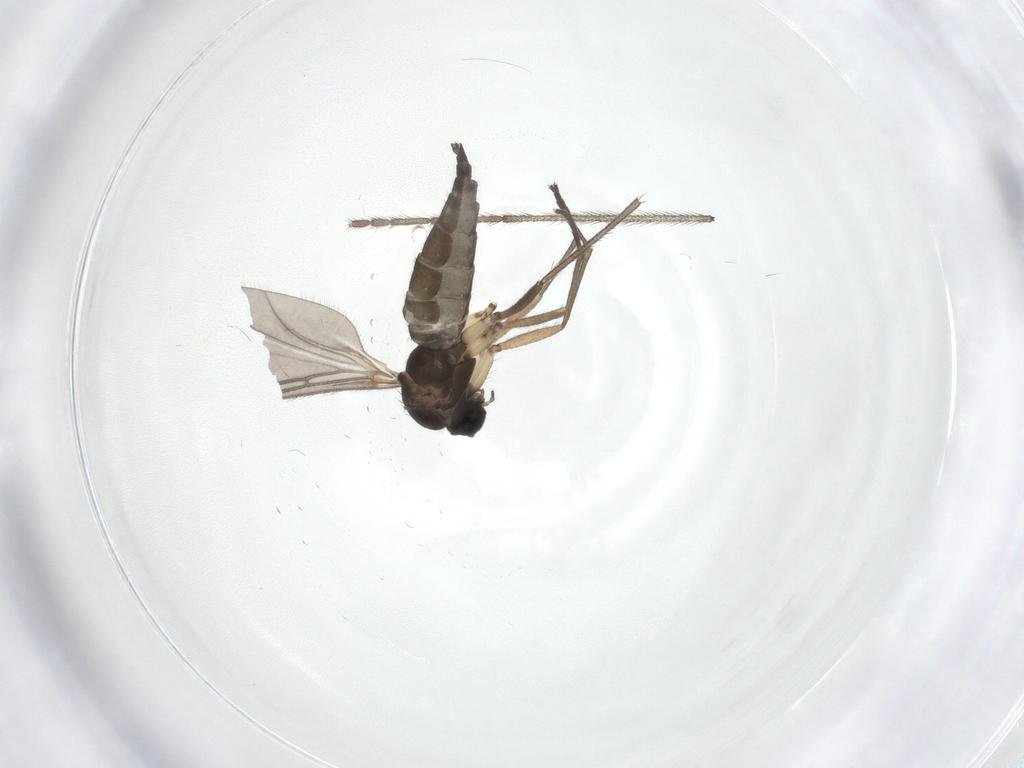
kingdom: Animalia
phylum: Arthropoda
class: Insecta
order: Diptera
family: Sciaridae
